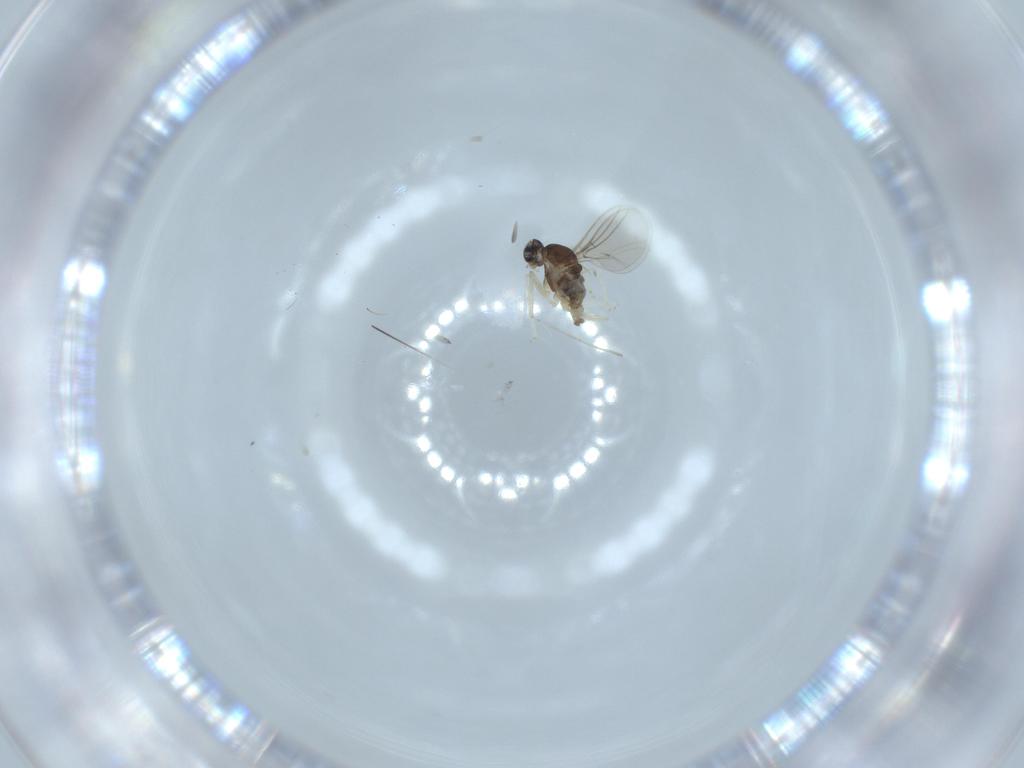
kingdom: Animalia
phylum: Arthropoda
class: Insecta
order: Diptera
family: Cecidomyiidae
